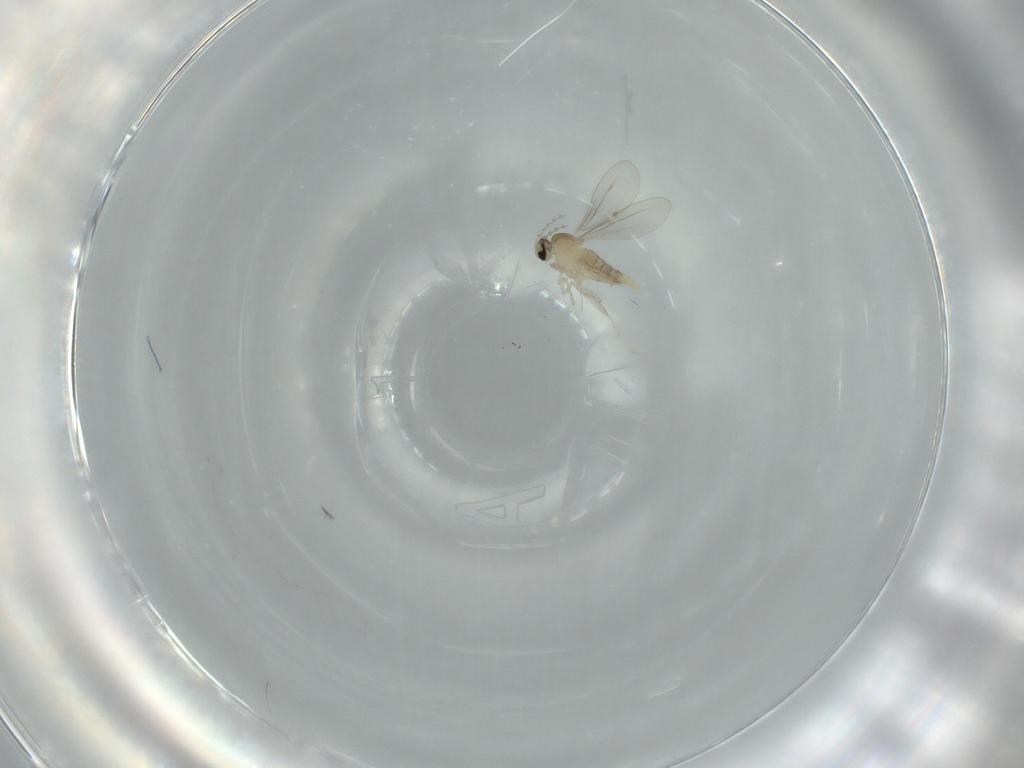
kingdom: Animalia
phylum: Arthropoda
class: Insecta
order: Diptera
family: Cecidomyiidae
